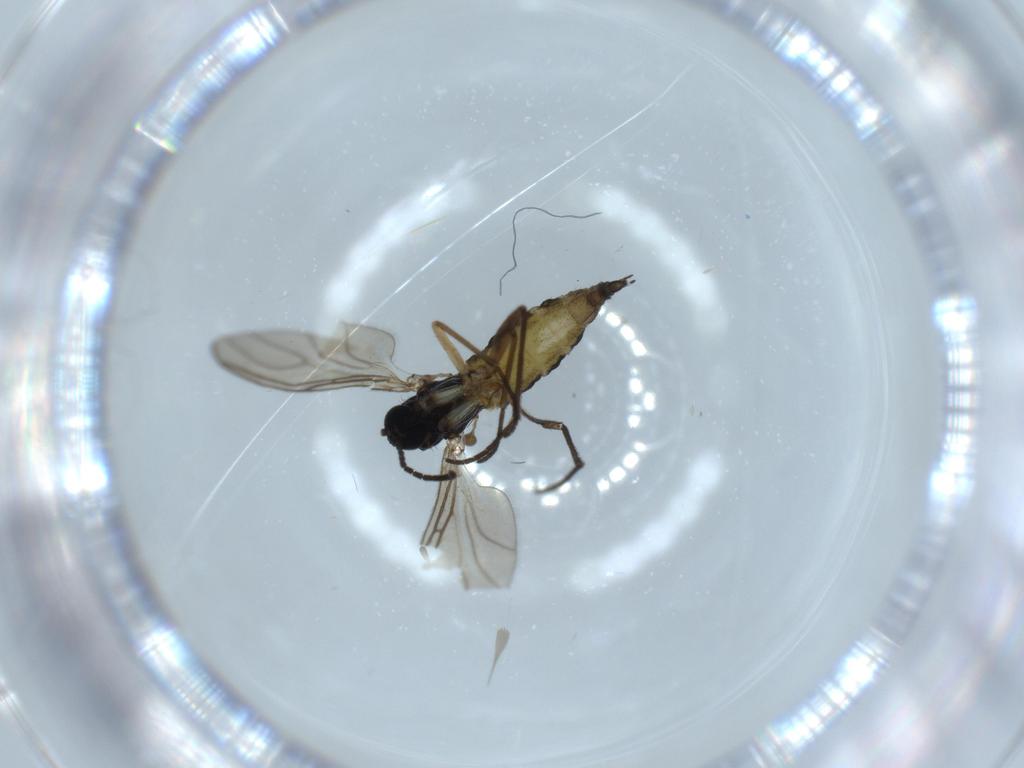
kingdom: Animalia
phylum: Arthropoda
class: Insecta
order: Diptera
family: Sciaridae
